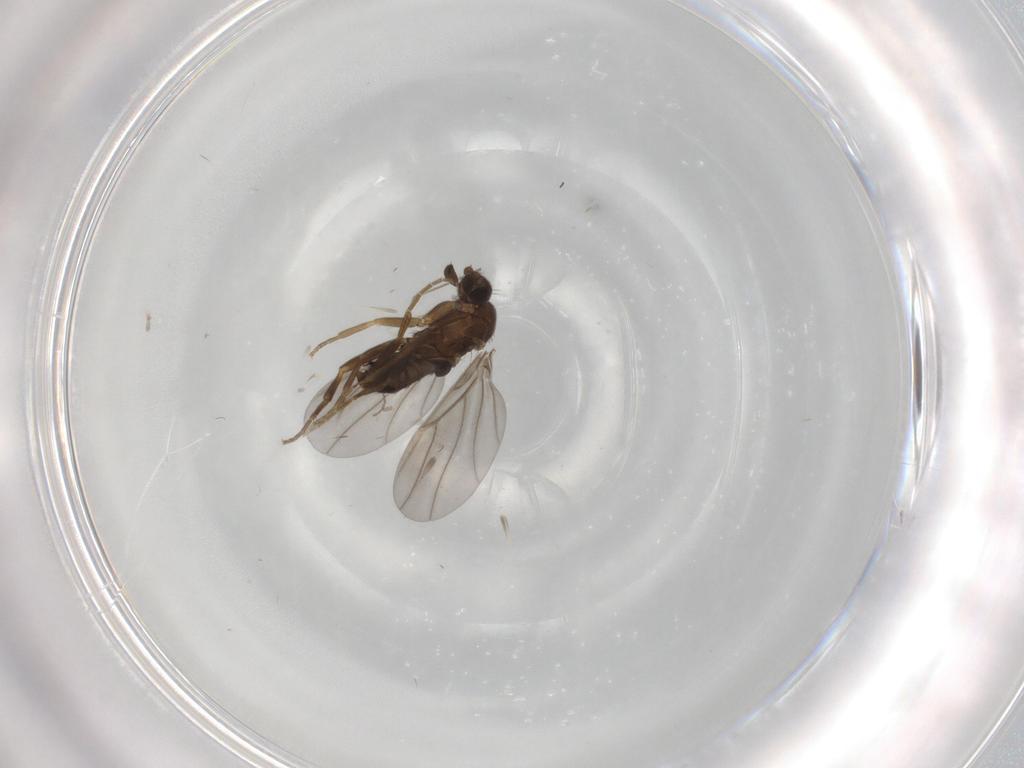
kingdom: Animalia
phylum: Arthropoda
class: Insecta
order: Diptera
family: Phoridae
